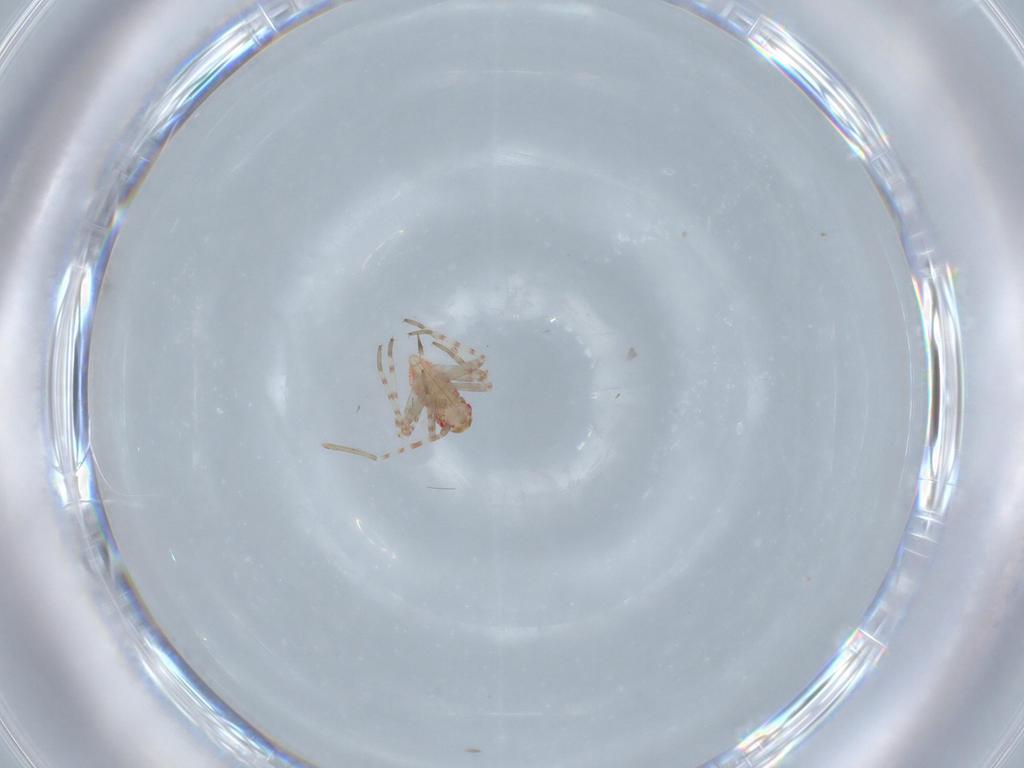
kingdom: Animalia
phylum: Arthropoda
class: Insecta
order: Hemiptera
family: Miridae
